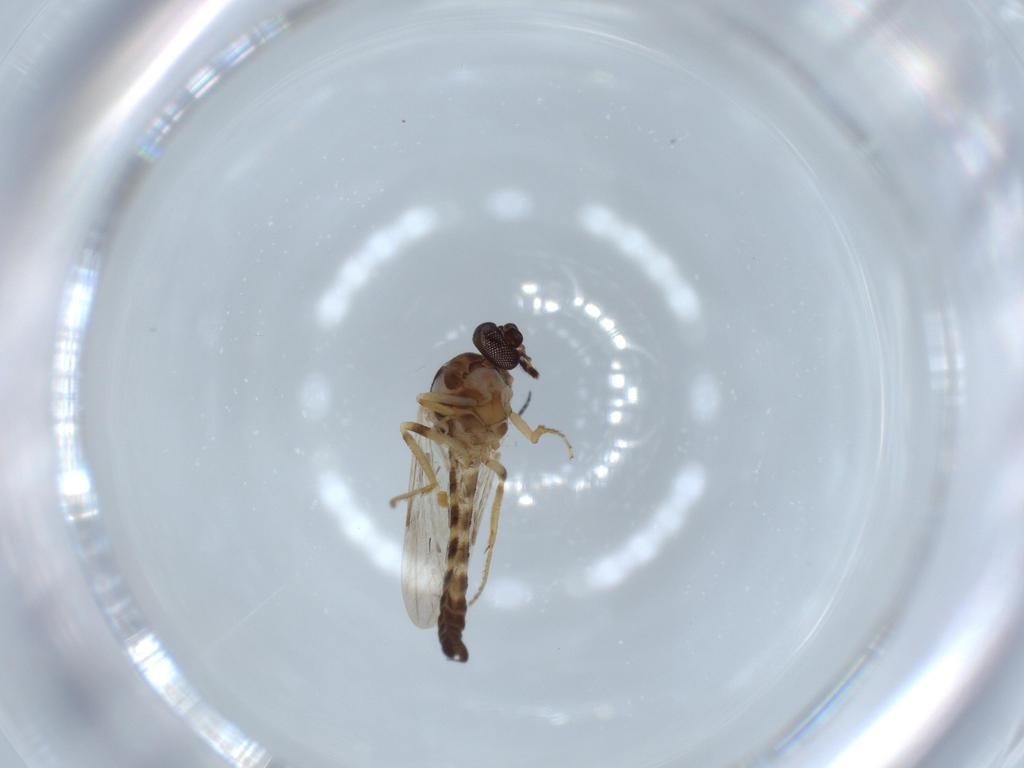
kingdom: Animalia
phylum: Arthropoda
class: Insecta
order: Diptera
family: Ceratopogonidae
